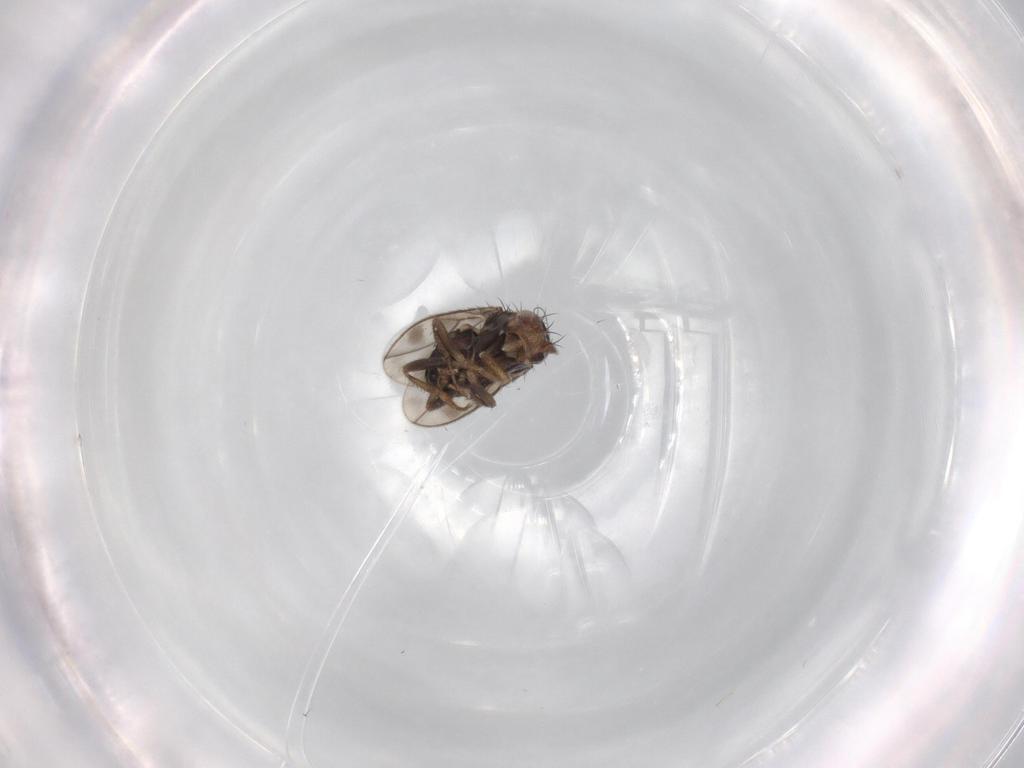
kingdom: Animalia
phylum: Arthropoda
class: Insecta
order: Diptera
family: Sphaeroceridae
